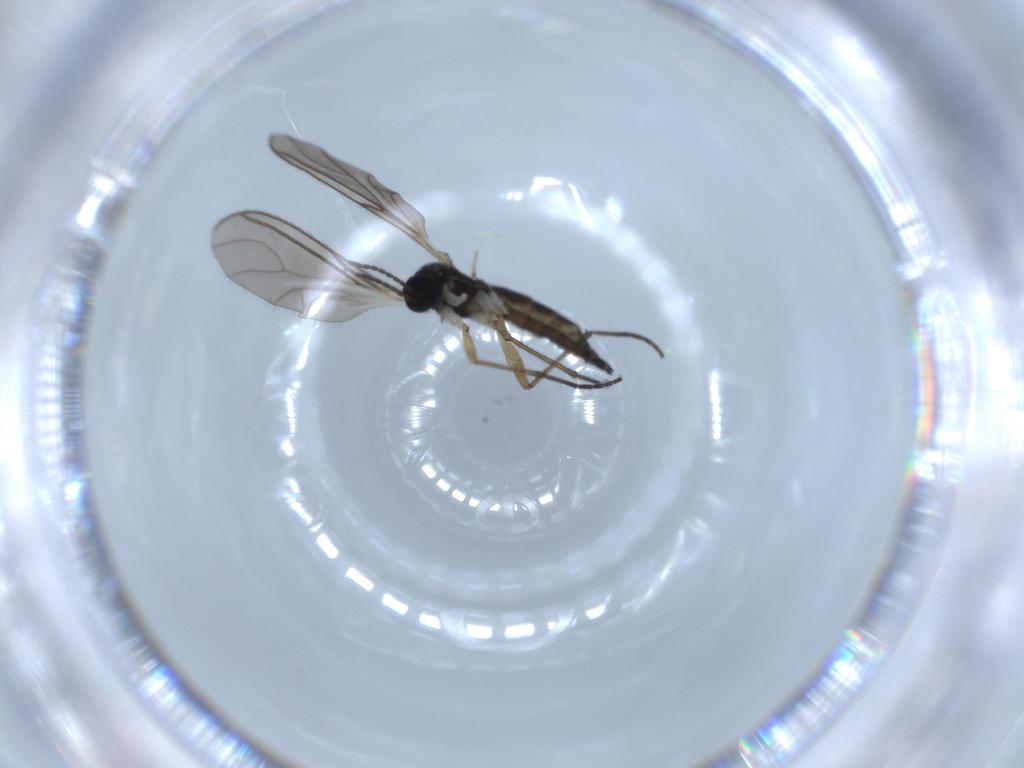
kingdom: Animalia
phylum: Arthropoda
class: Insecta
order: Diptera
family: Sciaridae
